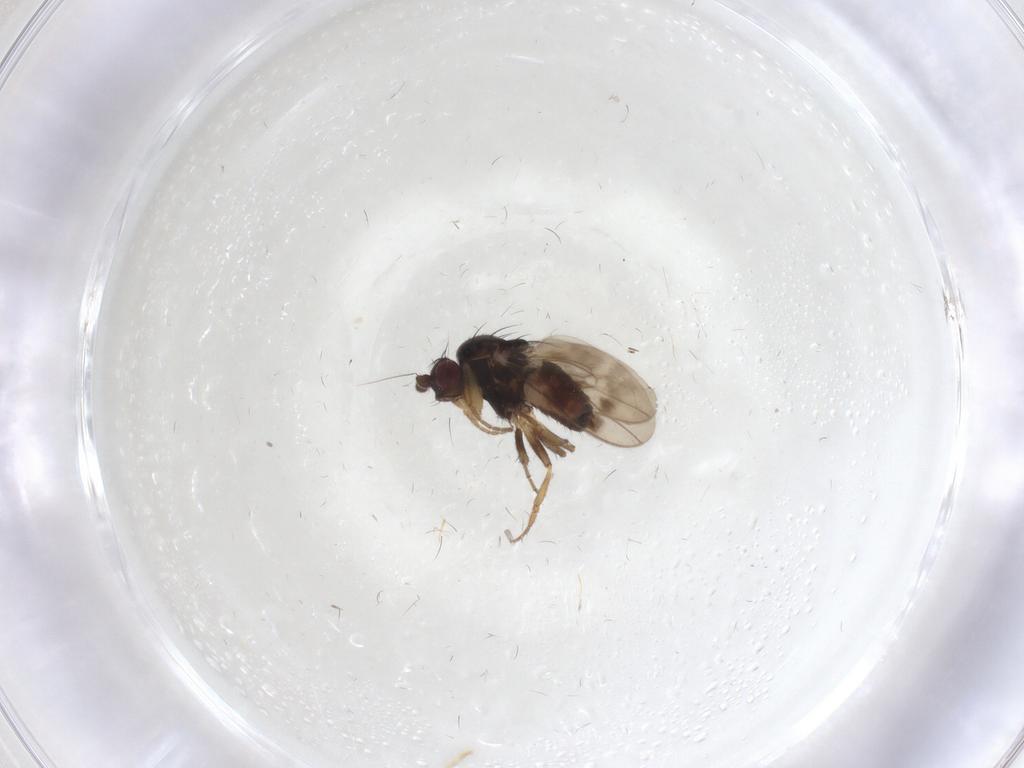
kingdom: Animalia
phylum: Arthropoda
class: Insecta
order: Diptera
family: Sphaeroceridae
